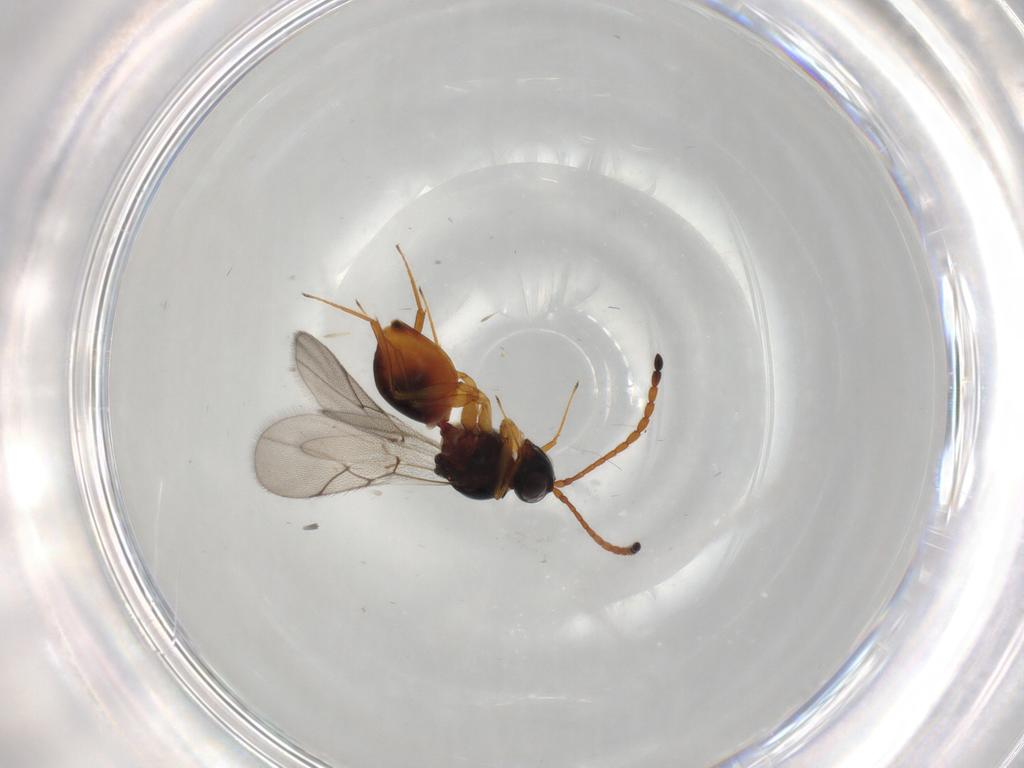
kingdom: Animalia
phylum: Arthropoda
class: Insecta
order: Hymenoptera
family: Figitidae
